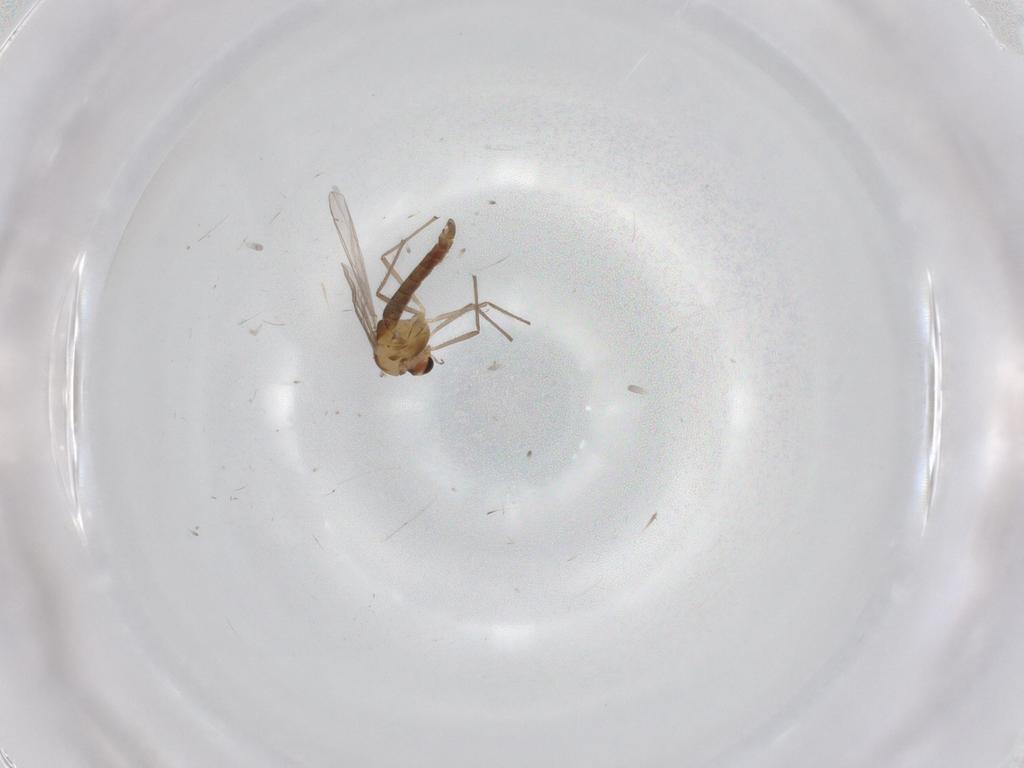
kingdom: Animalia
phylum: Arthropoda
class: Insecta
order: Diptera
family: Chironomidae
